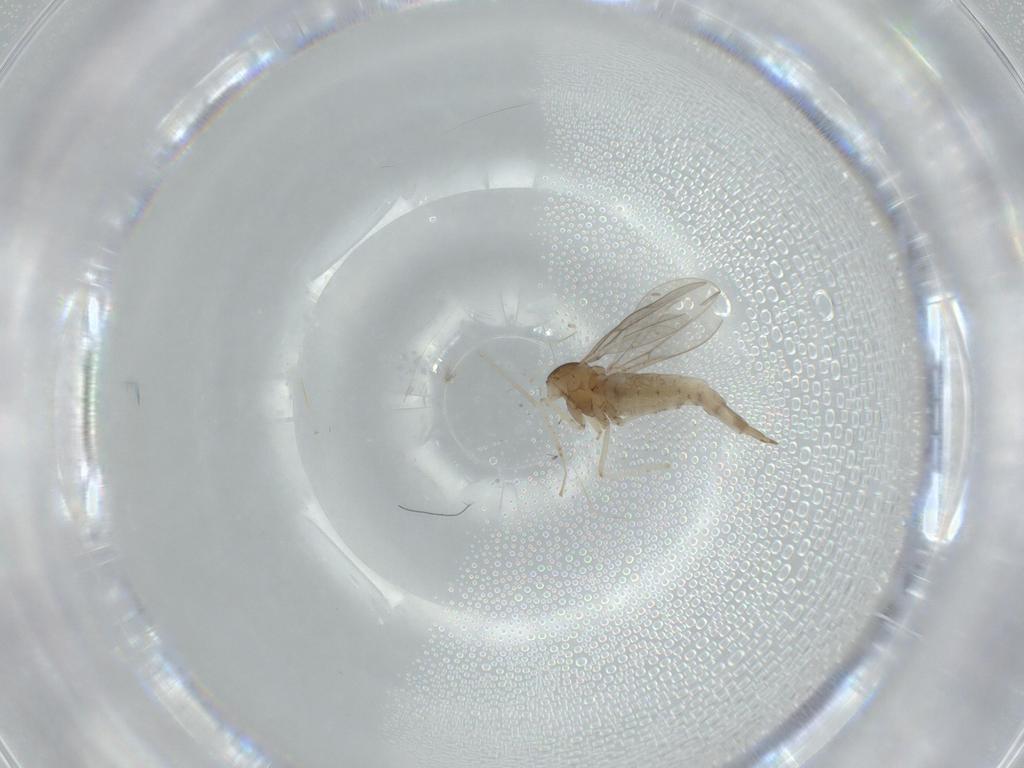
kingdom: Animalia
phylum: Arthropoda
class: Insecta
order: Diptera
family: Cecidomyiidae
